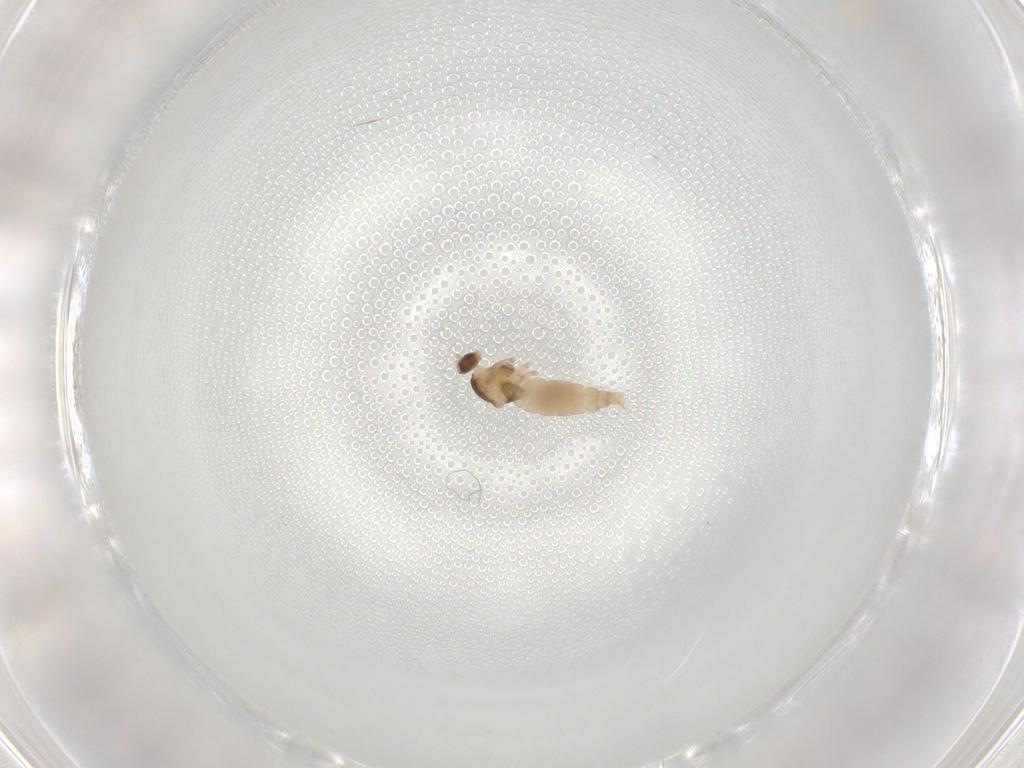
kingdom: Animalia
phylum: Arthropoda
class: Insecta
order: Diptera
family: Cecidomyiidae
